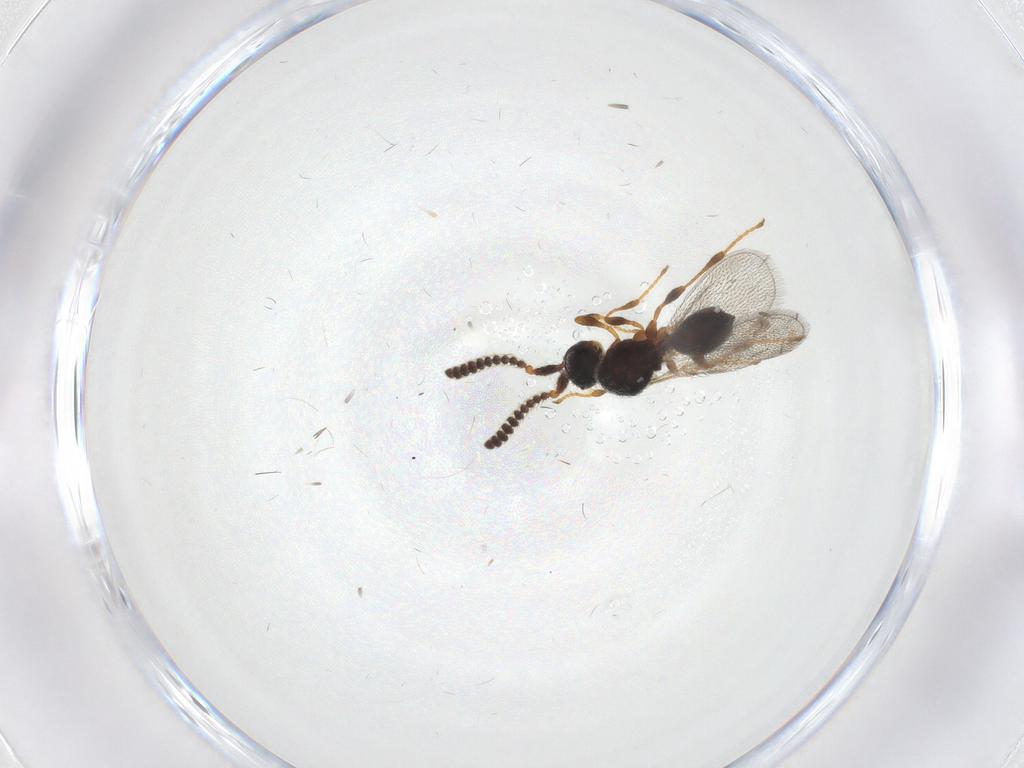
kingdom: Animalia
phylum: Arthropoda
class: Insecta
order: Hymenoptera
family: Diapriidae
